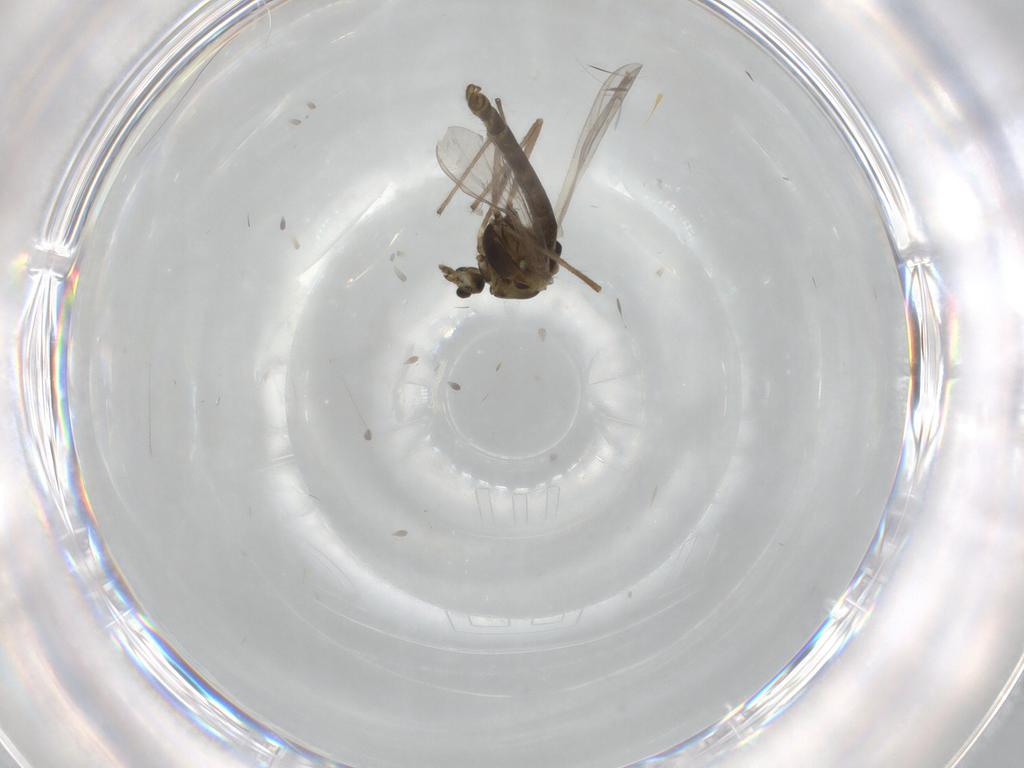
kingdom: Animalia
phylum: Arthropoda
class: Insecta
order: Diptera
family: Chironomidae
